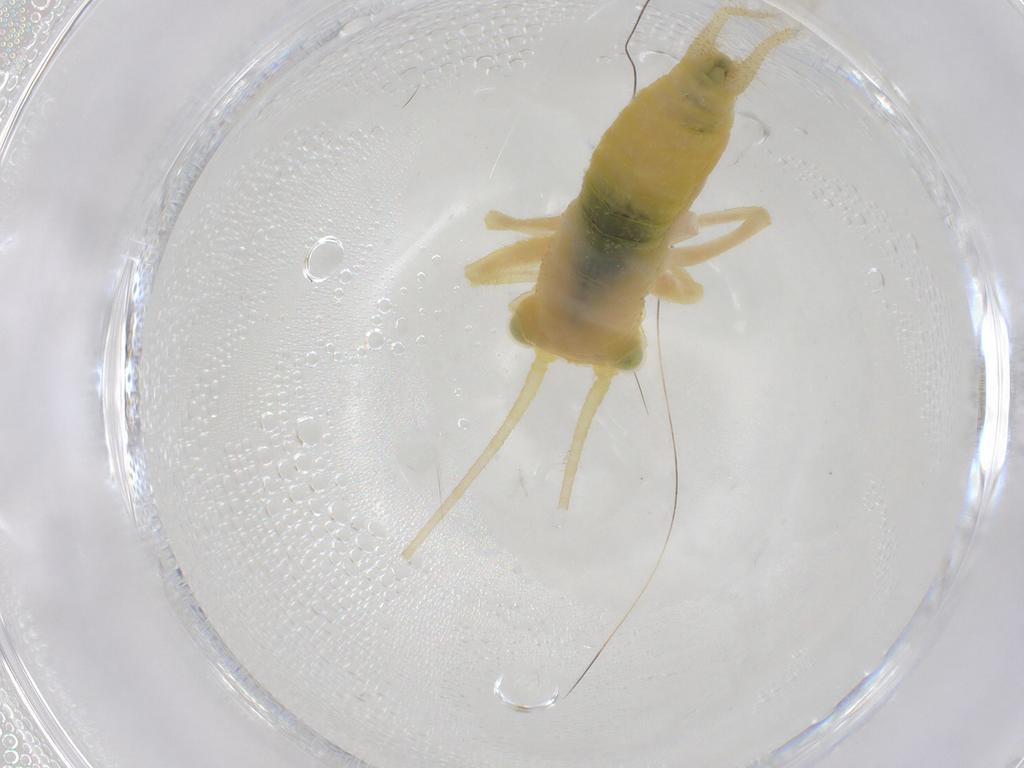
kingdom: Animalia
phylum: Arthropoda
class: Insecta
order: Orthoptera
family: Trigonidiidae
